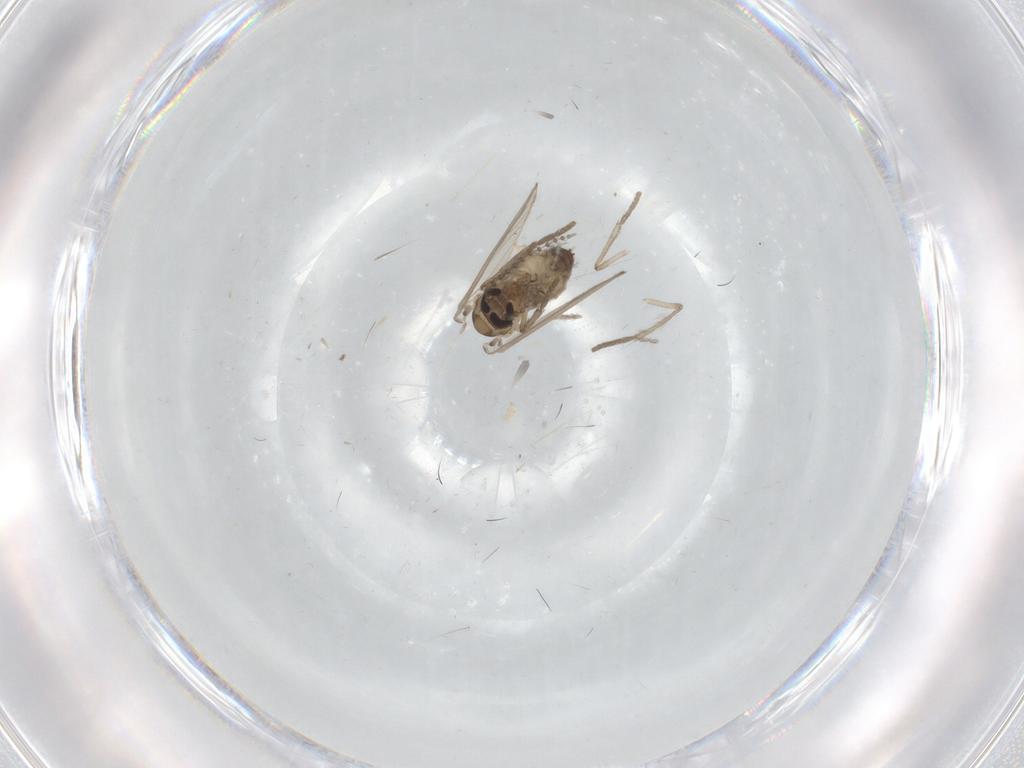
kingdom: Animalia
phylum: Arthropoda
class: Insecta
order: Diptera
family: Psychodidae
